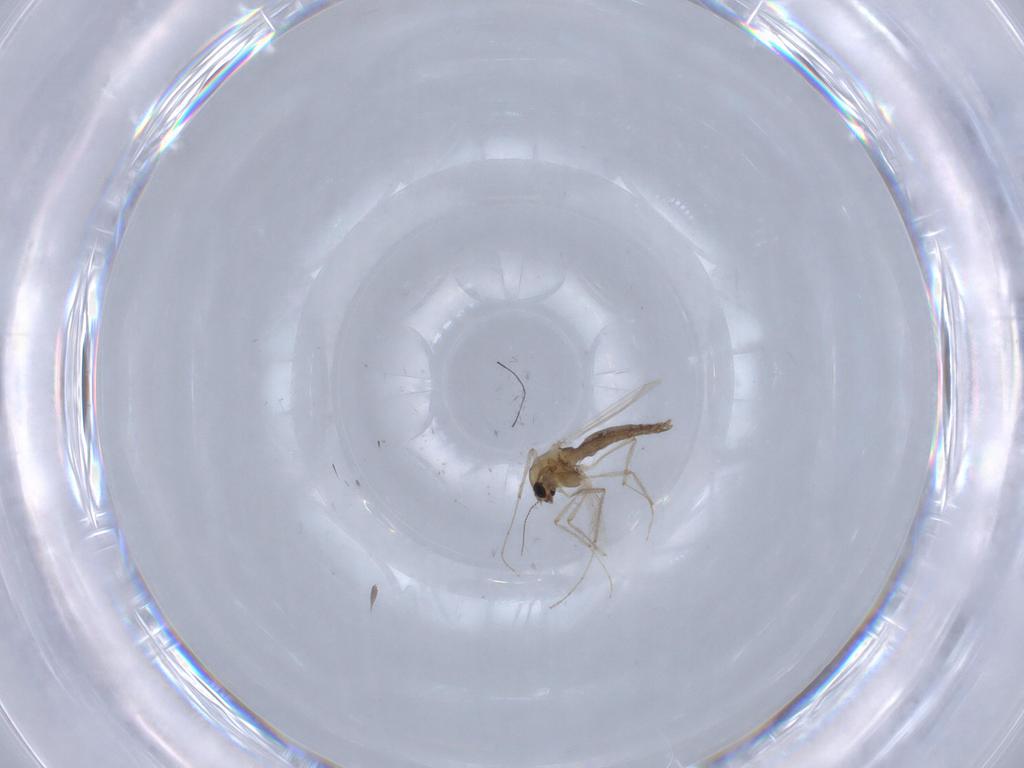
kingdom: Animalia
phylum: Arthropoda
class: Insecta
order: Diptera
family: Chironomidae
